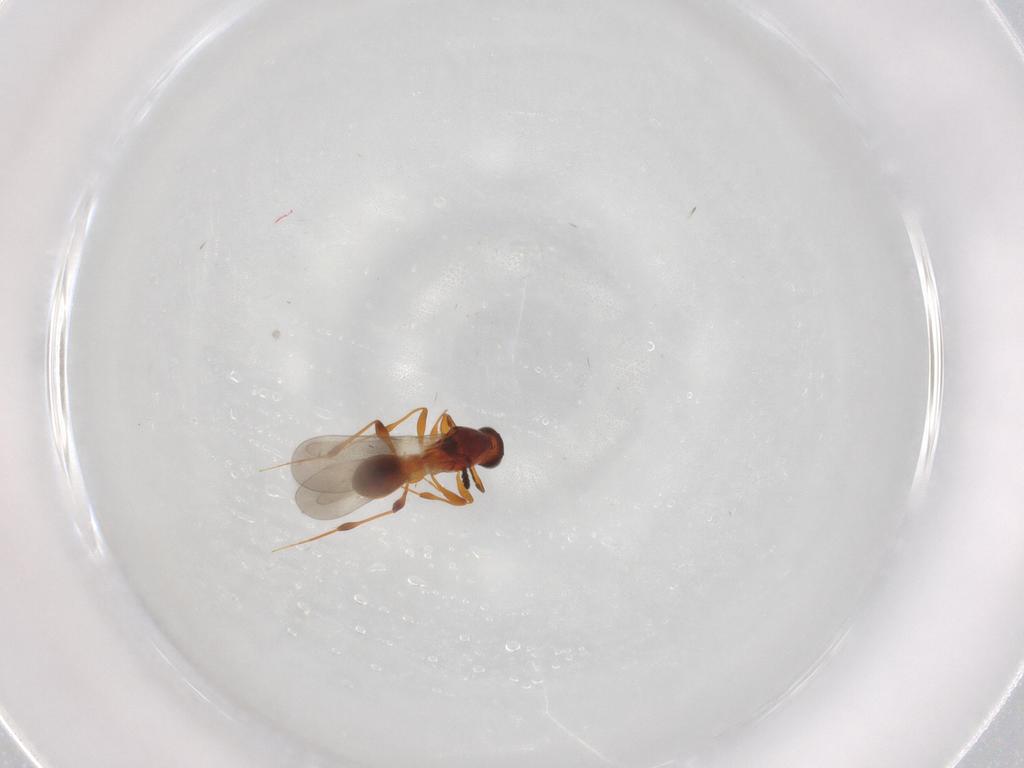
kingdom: Animalia
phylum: Arthropoda
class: Insecta
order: Hymenoptera
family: Platygastridae
